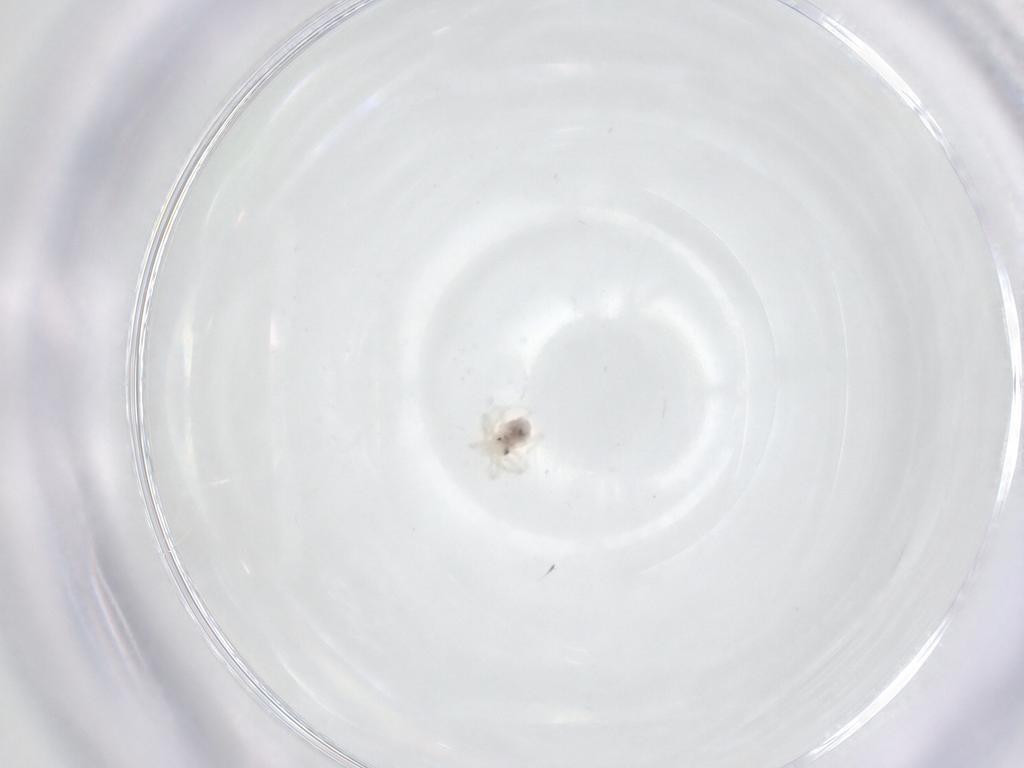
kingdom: Animalia
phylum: Arthropoda
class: Arachnida
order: Trombidiformes
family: Anystidae
